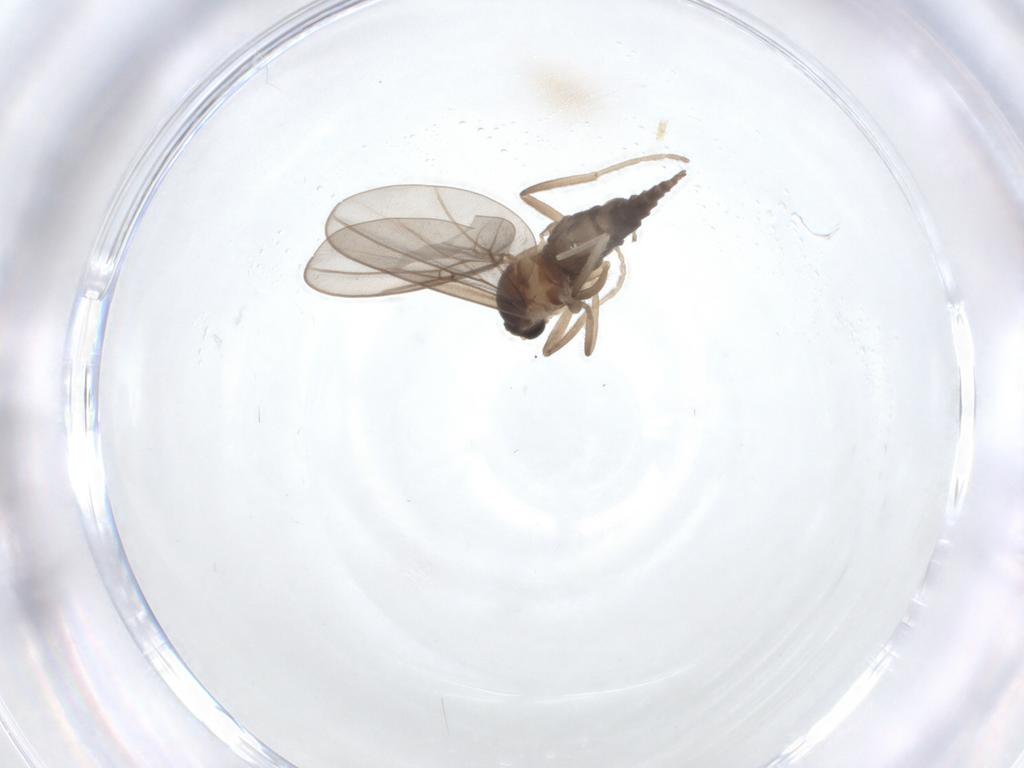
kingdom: Animalia
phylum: Arthropoda
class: Insecta
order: Diptera
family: Cecidomyiidae
